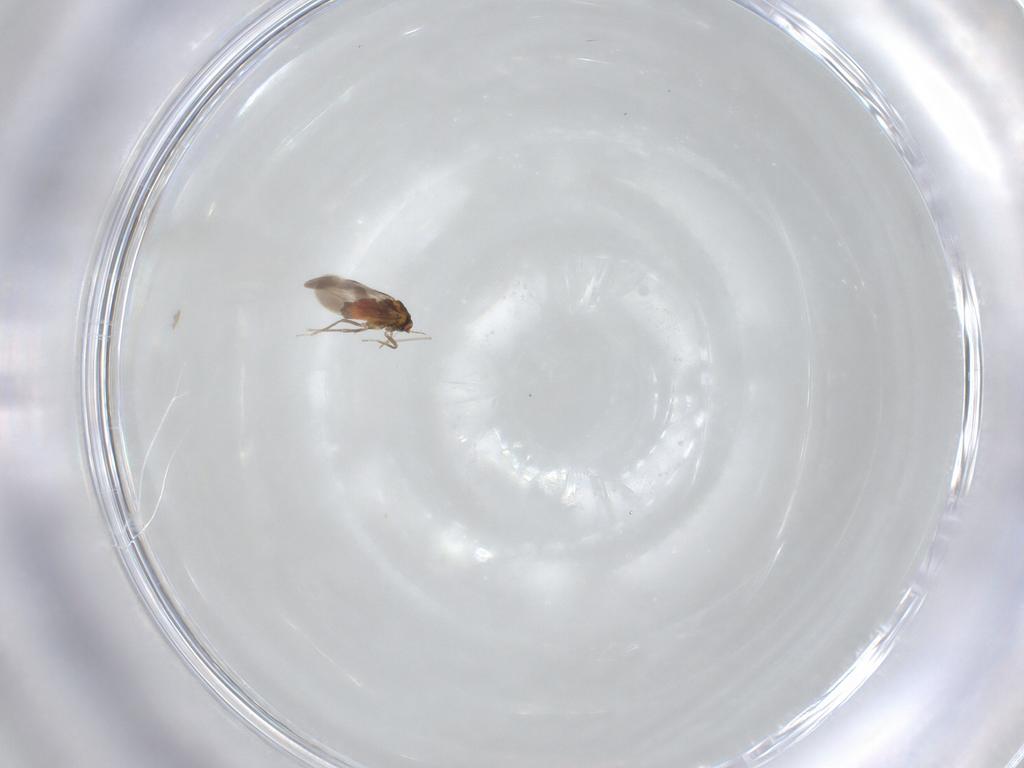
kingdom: Animalia
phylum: Arthropoda
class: Insecta
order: Hemiptera
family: Aleyrodidae
